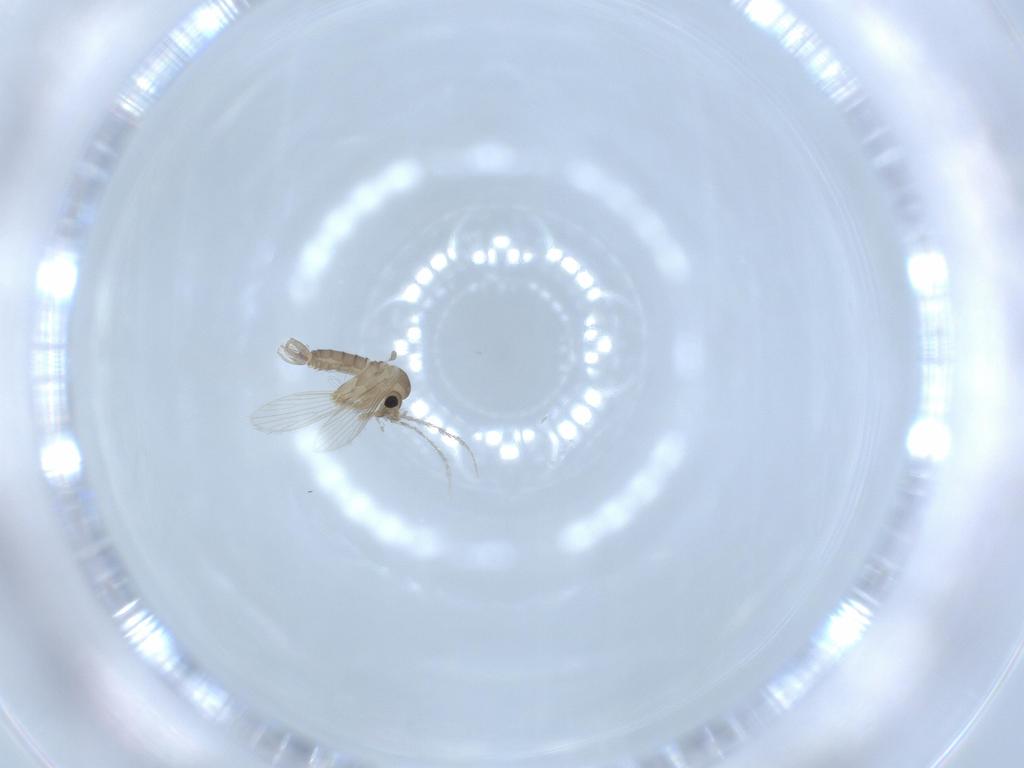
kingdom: Animalia
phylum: Arthropoda
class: Insecta
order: Diptera
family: Psychodidae
